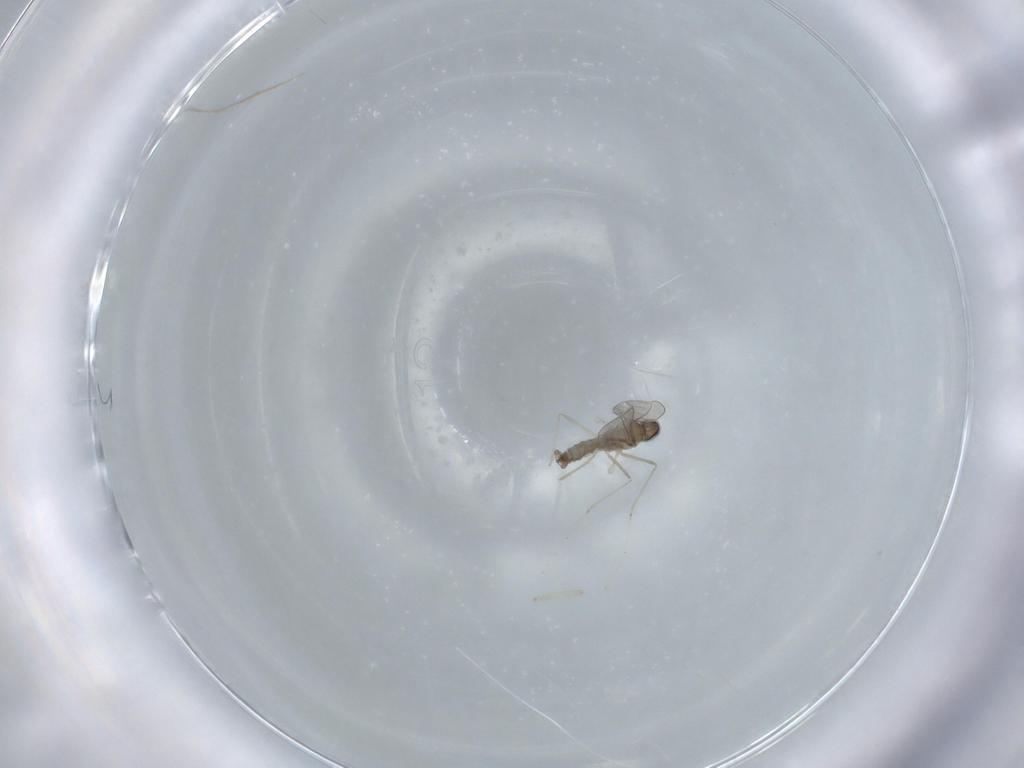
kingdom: Animalia
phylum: Arthropoda
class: Insecta
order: Diptera
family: Cecidomyiidae
